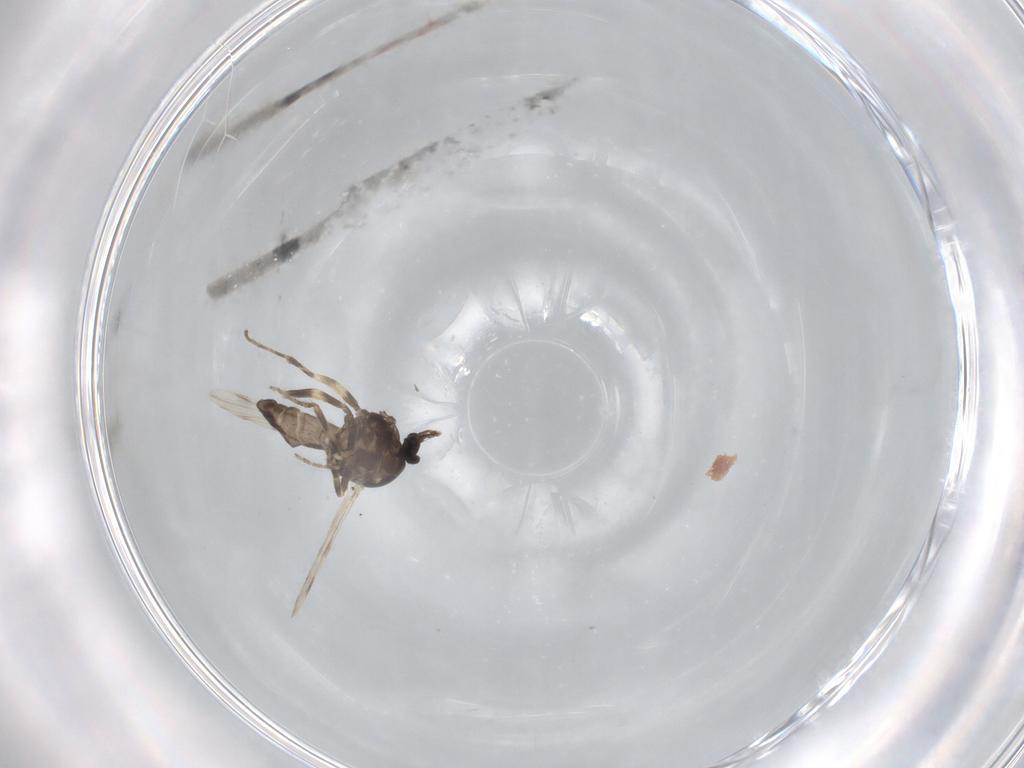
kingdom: Animalia
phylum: Arthropoda
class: Insecta
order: Diptera
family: Ceratopogonidae
